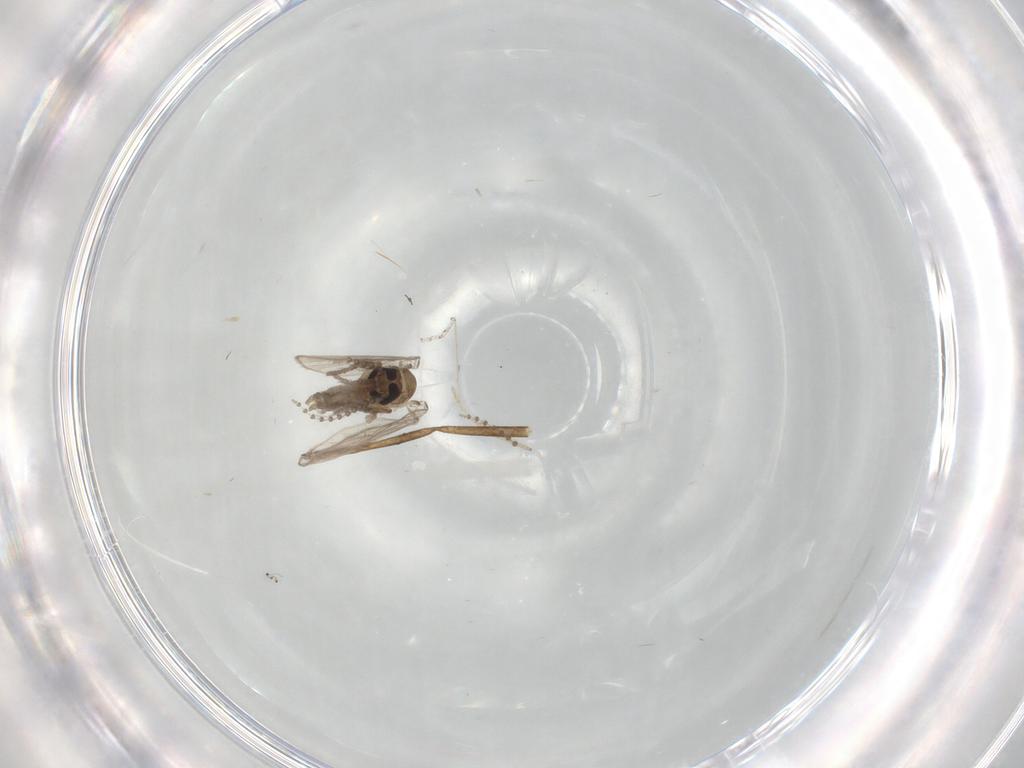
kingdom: Animalia
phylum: Arthropoda
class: Insecta
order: Diptera
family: Psychodidae
